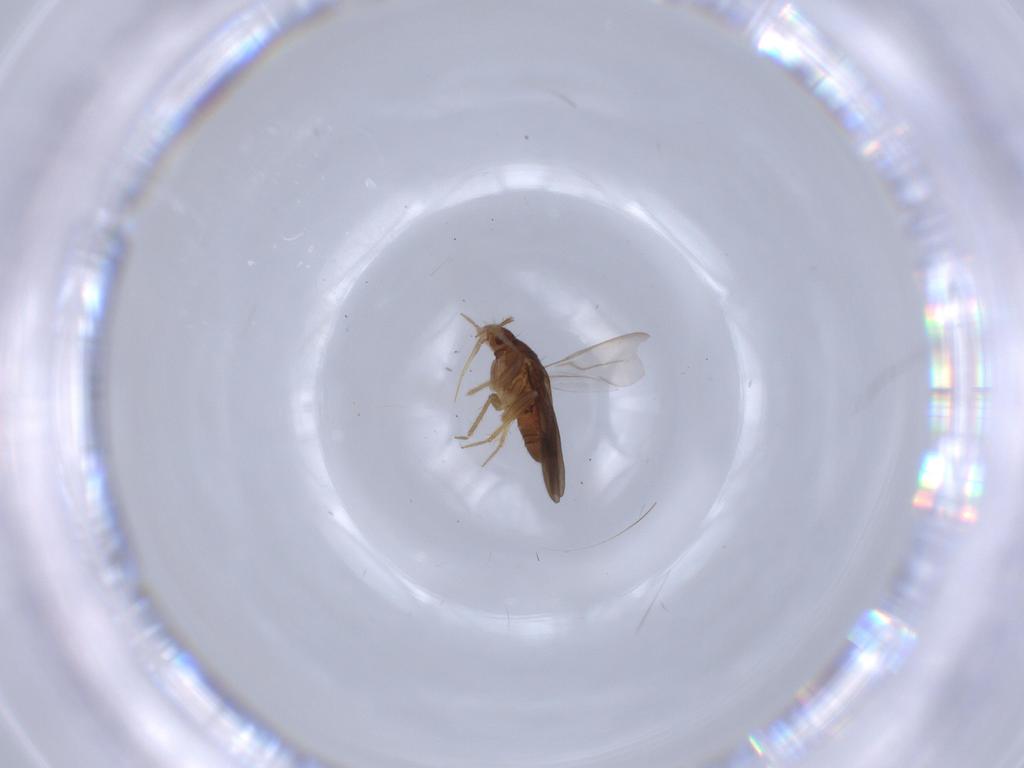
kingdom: Animalia
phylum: Arthropoda
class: Insecta
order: Hemiptera
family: Ceratocombidae
